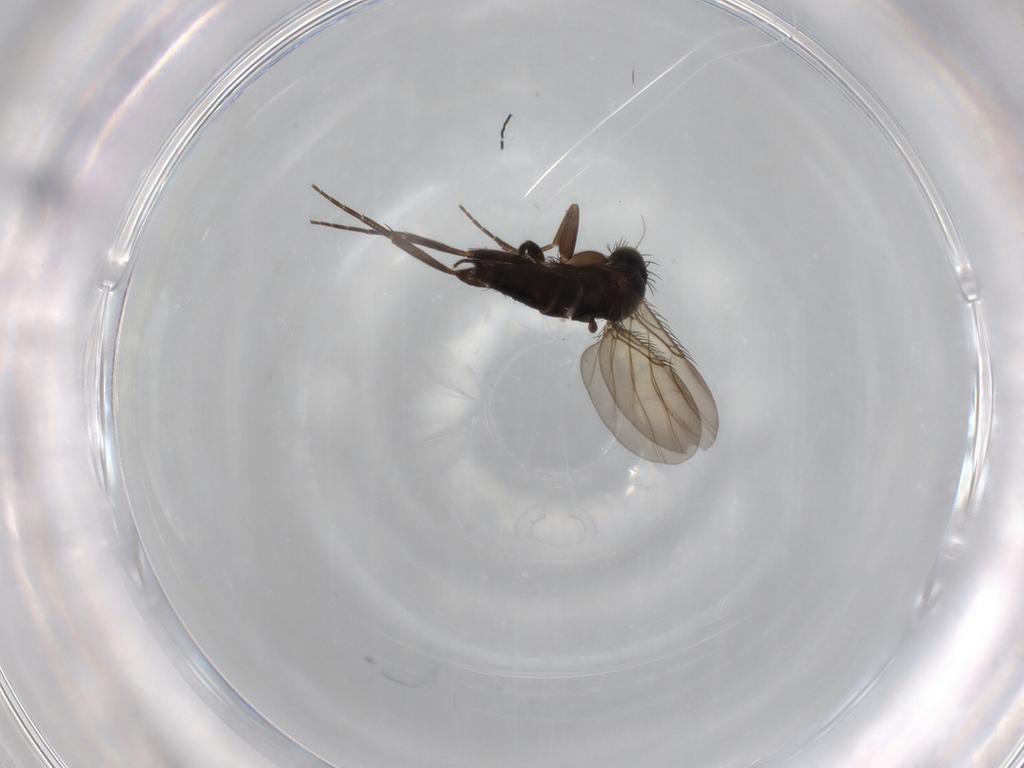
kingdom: Animalia
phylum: Arthropoda
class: Insecta
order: Diptera
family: Phoridae
